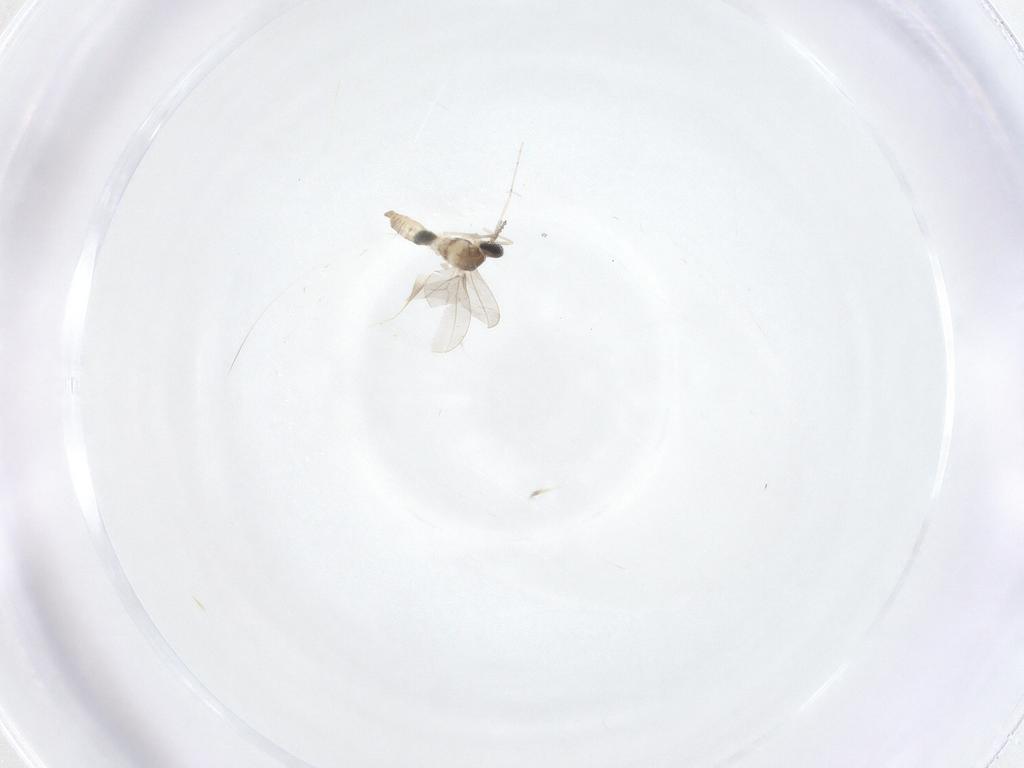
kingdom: Animalia
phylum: Arthropoda
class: Insecta
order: Diptera
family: Cecidomyiidae
